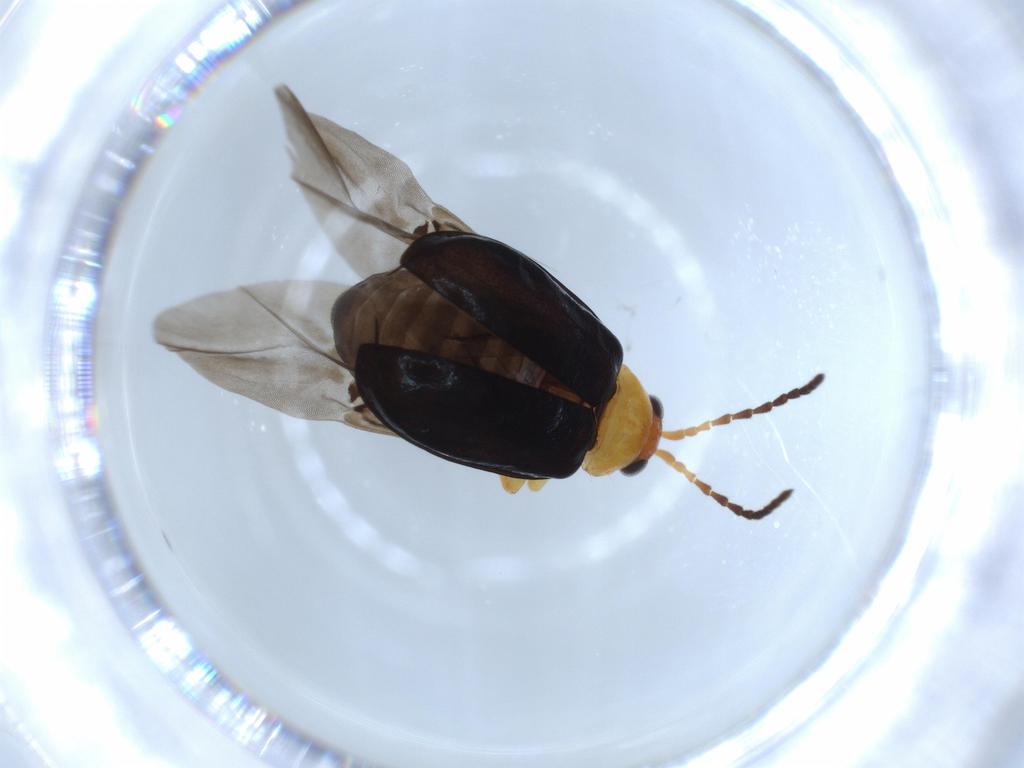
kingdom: Animalia
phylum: Arthropoda
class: Insecta
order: Coleoptera
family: Chrysomelidae
